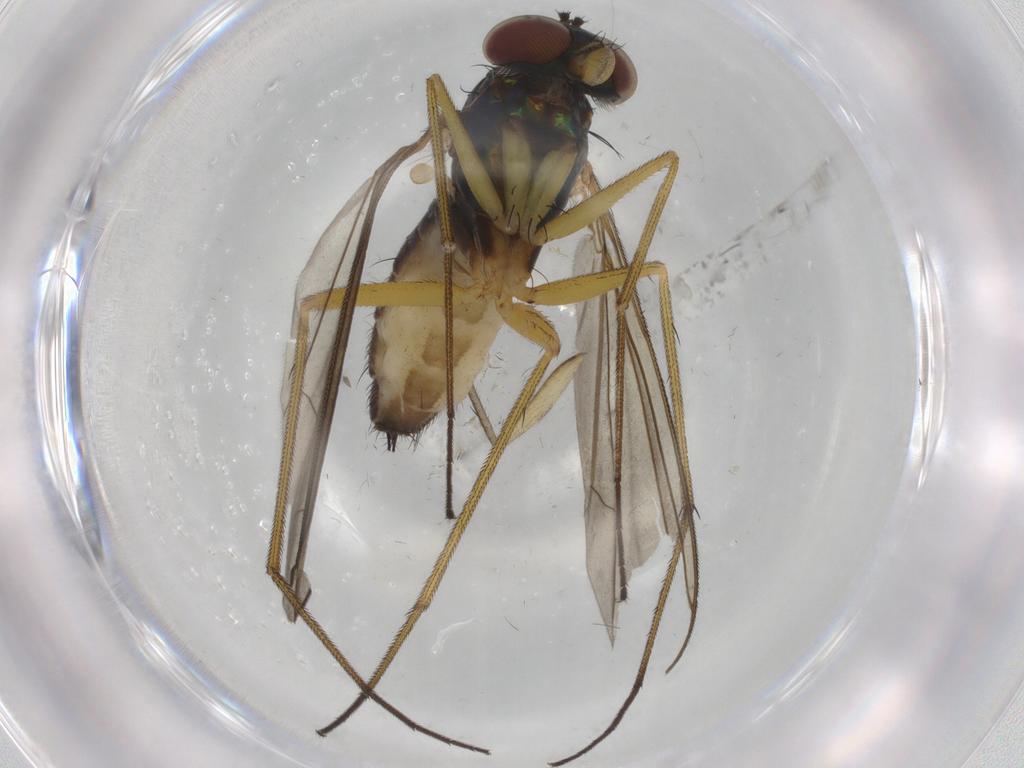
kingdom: Animalia
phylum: Arthropoda
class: Insecta
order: Diptera
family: Dolichopodidae
